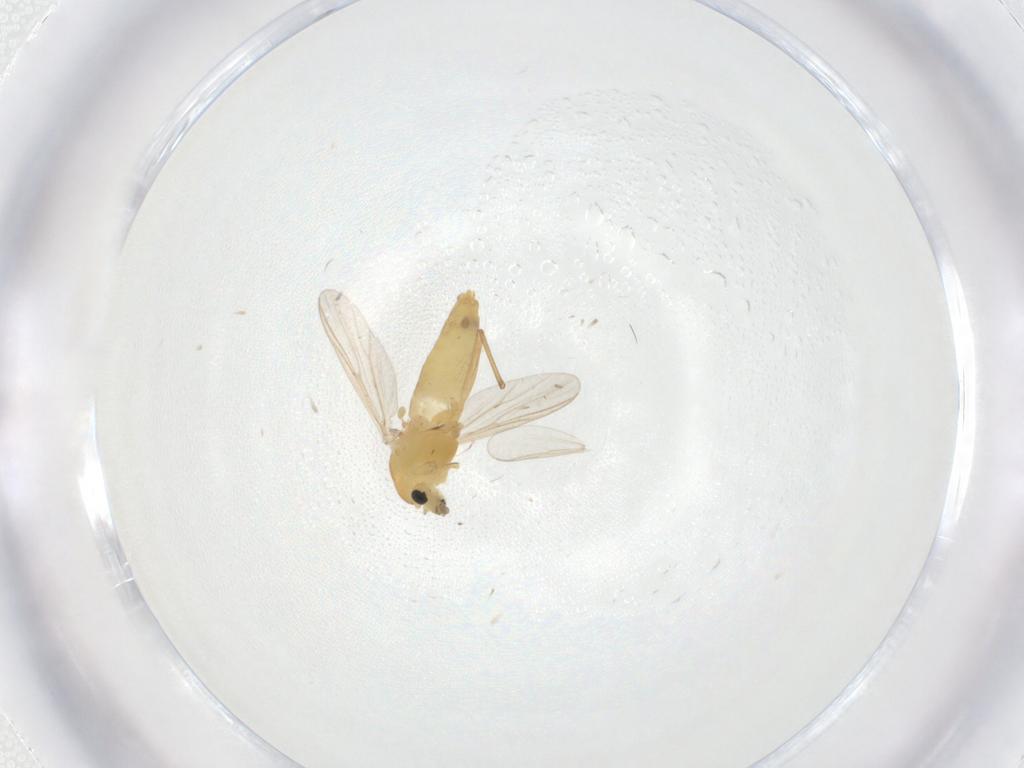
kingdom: Animalia
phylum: Arthropoda
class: Insecta
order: Diptera
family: Chironomidae
